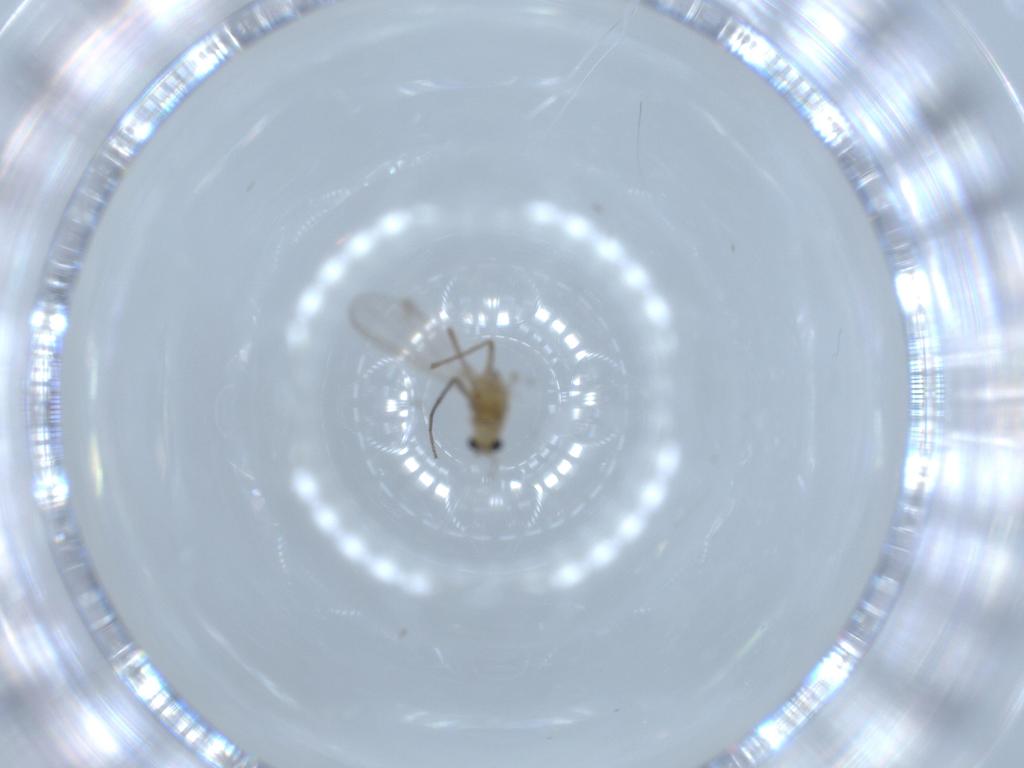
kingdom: Animalia
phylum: Arthropoda
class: Insecta
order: Diptera
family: Chironomidae
